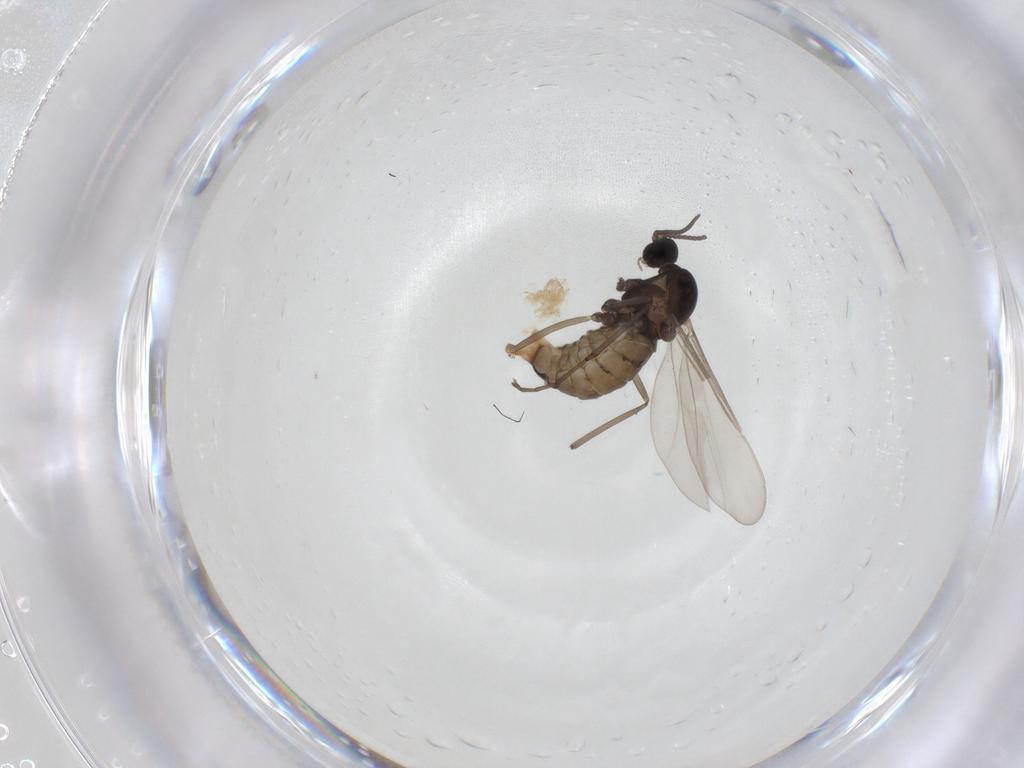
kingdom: Animalia
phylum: Arthropoda
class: Insecta
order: Diptera
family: Cecidomyiidae
